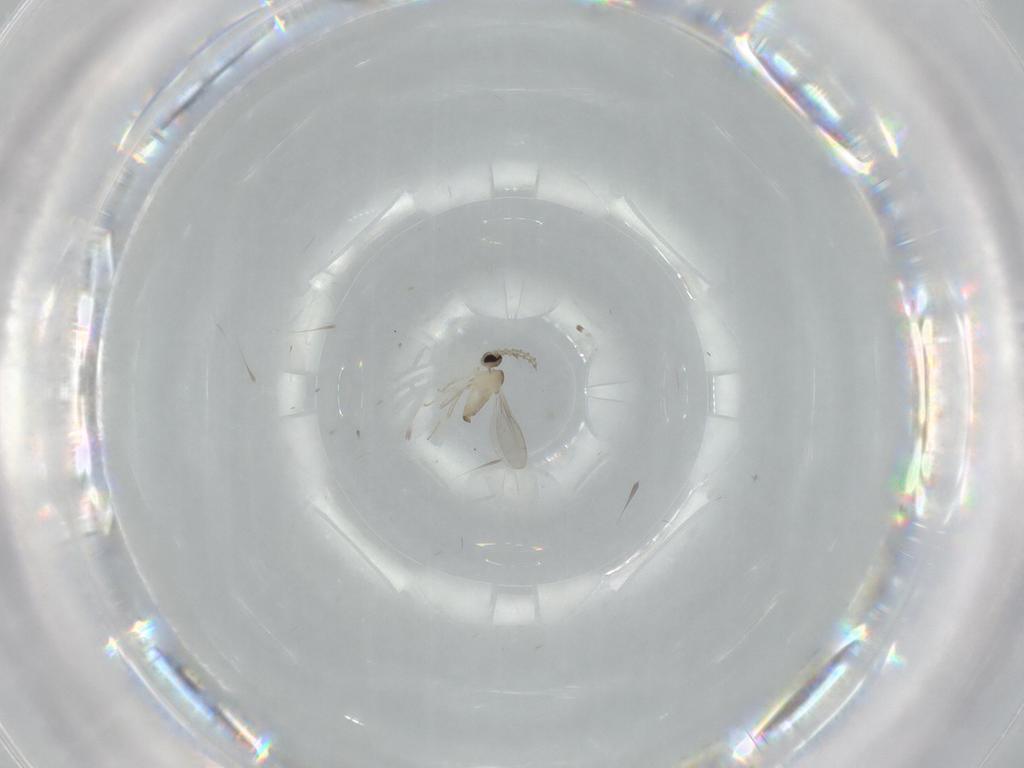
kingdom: Animalia
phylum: Arthropoda
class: Insecta
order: Diptera
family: Cecidomyiidae
